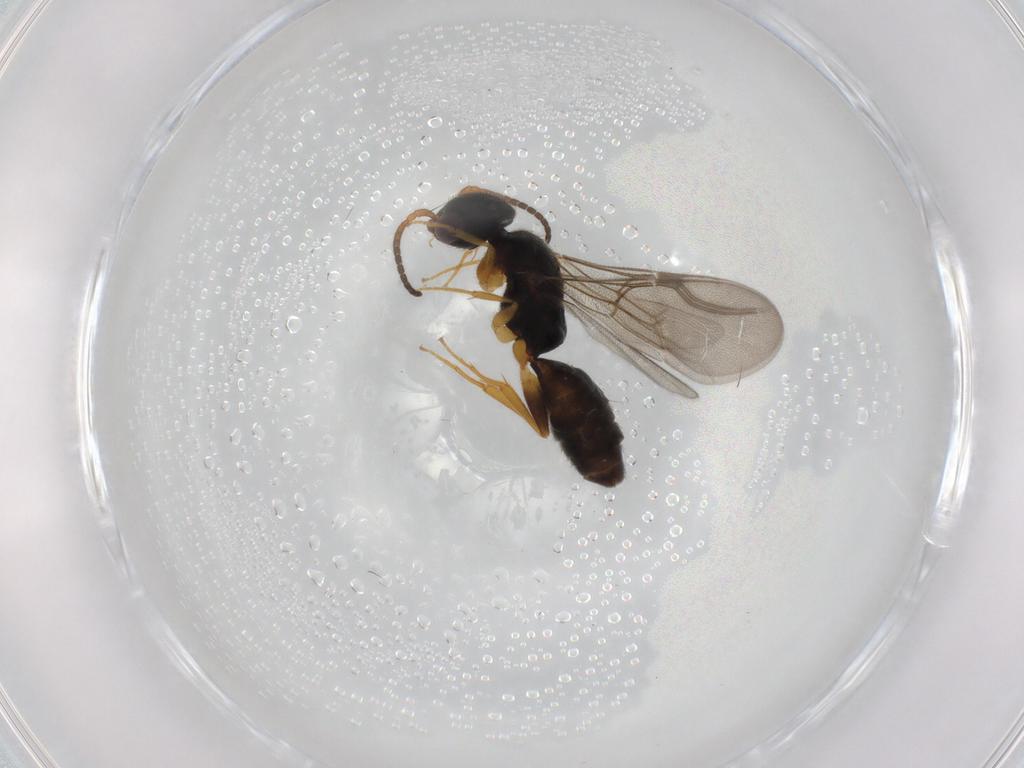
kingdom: Animalia
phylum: Arthropoda
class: Insecta
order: Hymenoptera
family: Bethylidae
